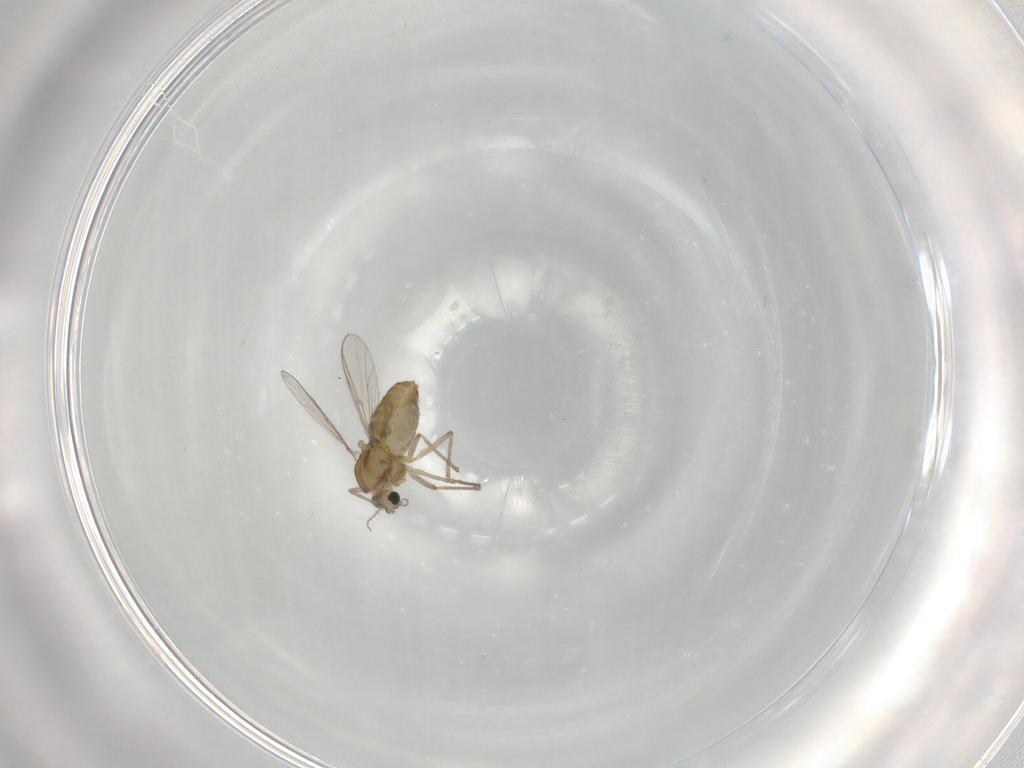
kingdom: Animalia
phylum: Arthropoda
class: Insecta
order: Diptera
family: Chironomidae
